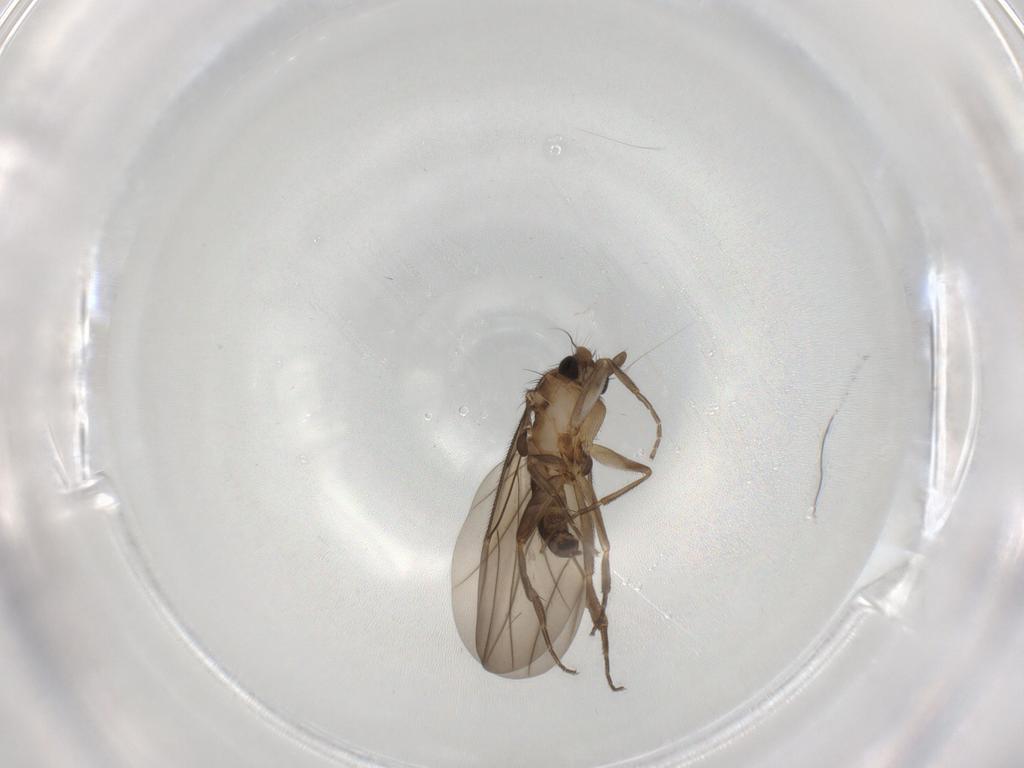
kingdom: Animalia
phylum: Arthropoda
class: Insecta
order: Diptera
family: Phoridae
